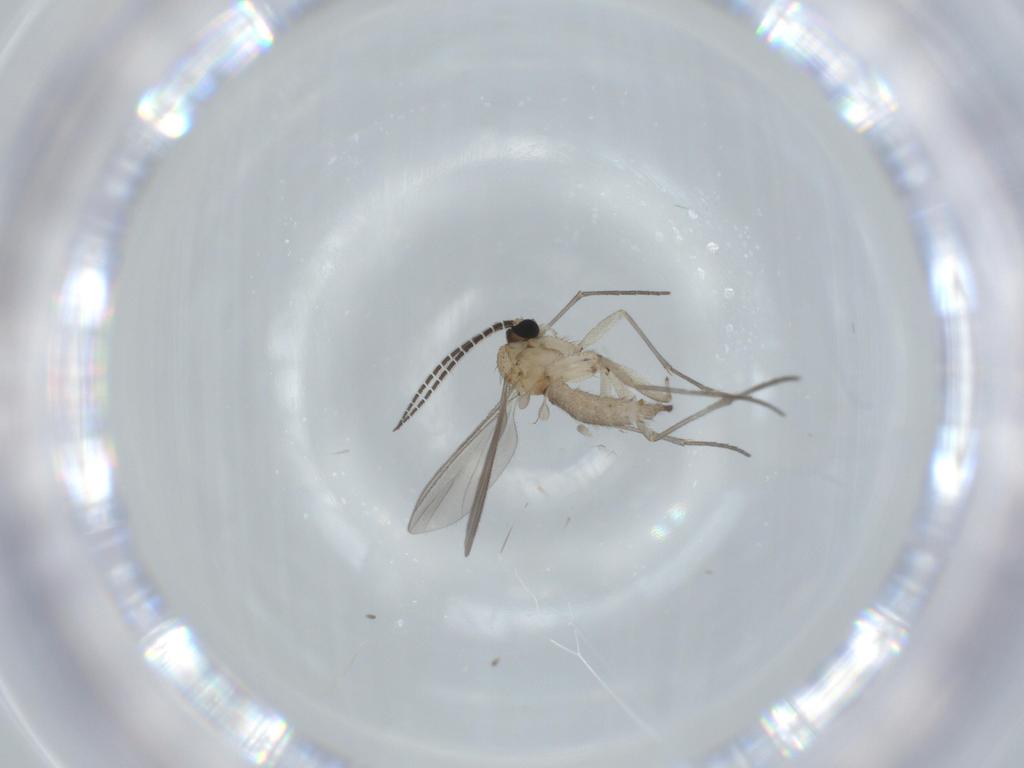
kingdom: Animalia
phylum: Arthropoda
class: Insecta
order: Diptera
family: Sciaridae
